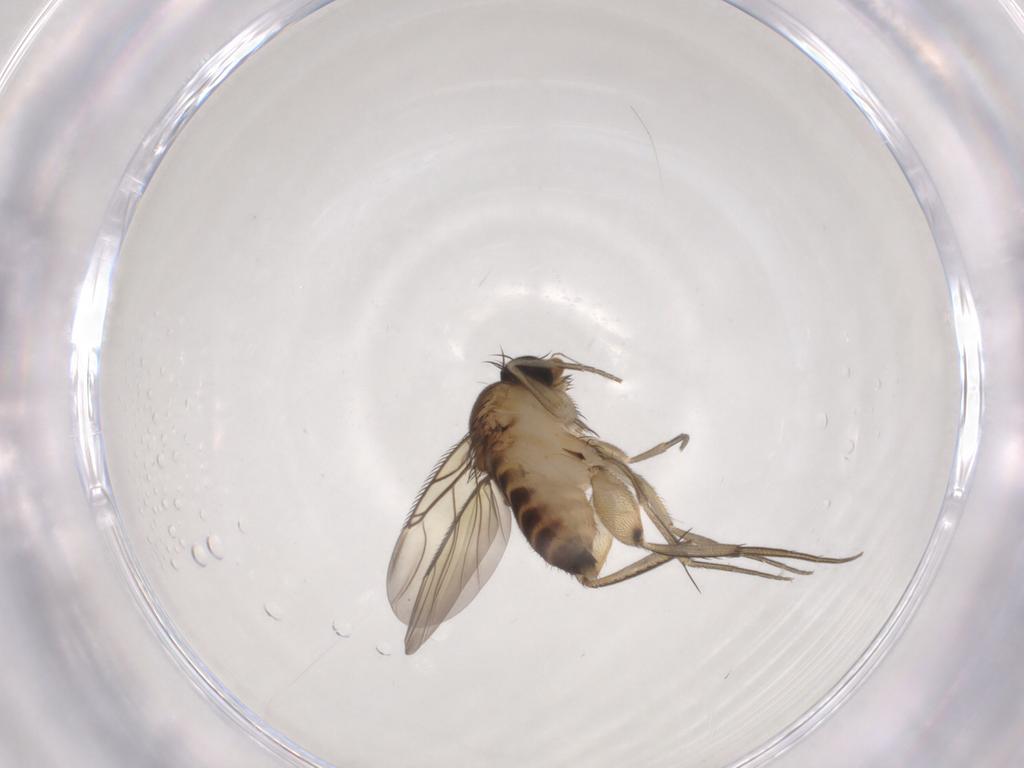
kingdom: Animalia
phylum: Arthropoda
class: Insecta
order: Diptera
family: Phoridae
